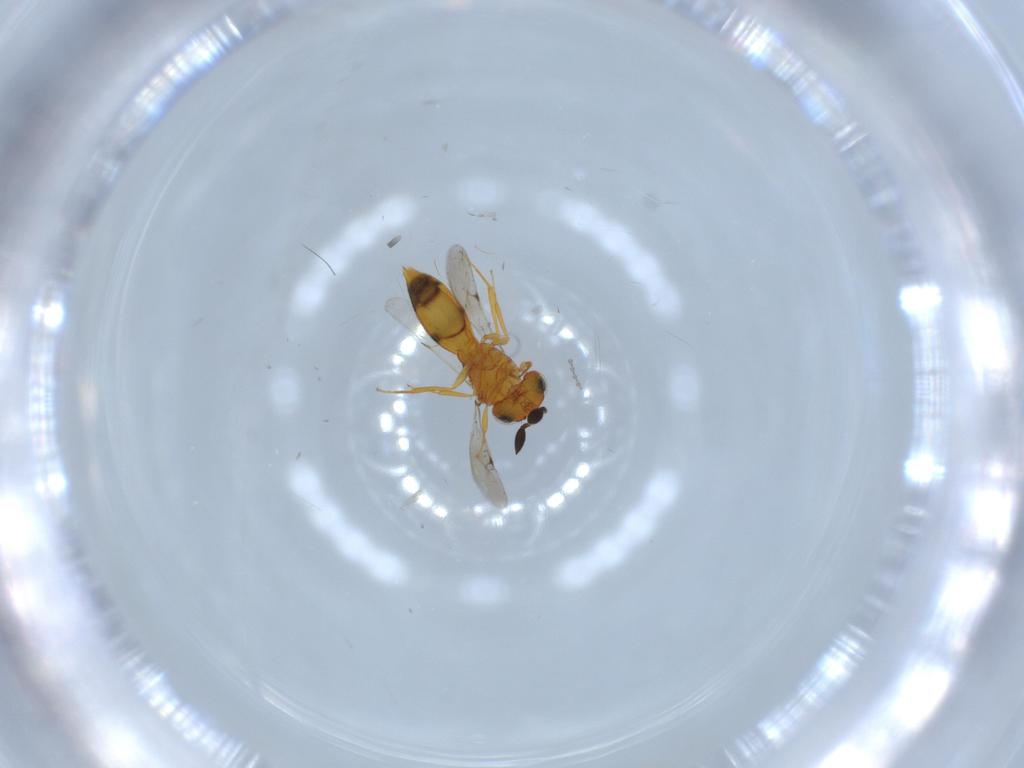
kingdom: Animalia
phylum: Arthropoda
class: Insecta
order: Hymenoptera
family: Scelionidae
